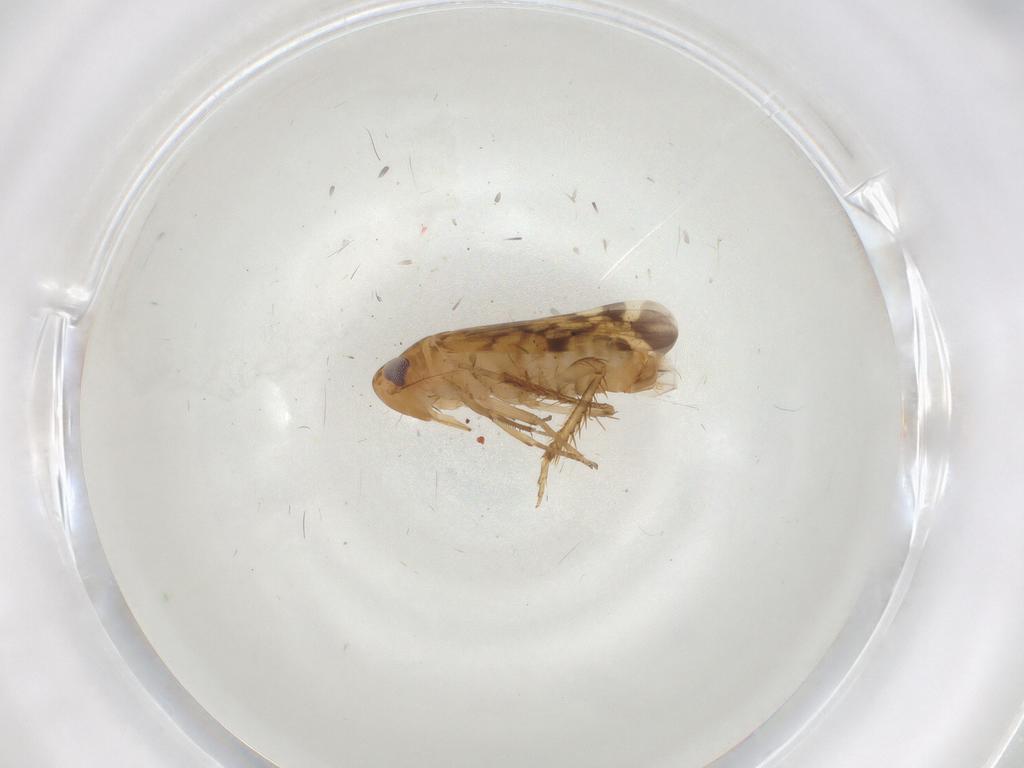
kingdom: Animalia
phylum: Arthropoda
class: Insecta
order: Hemiptera
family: Cicadellidae
